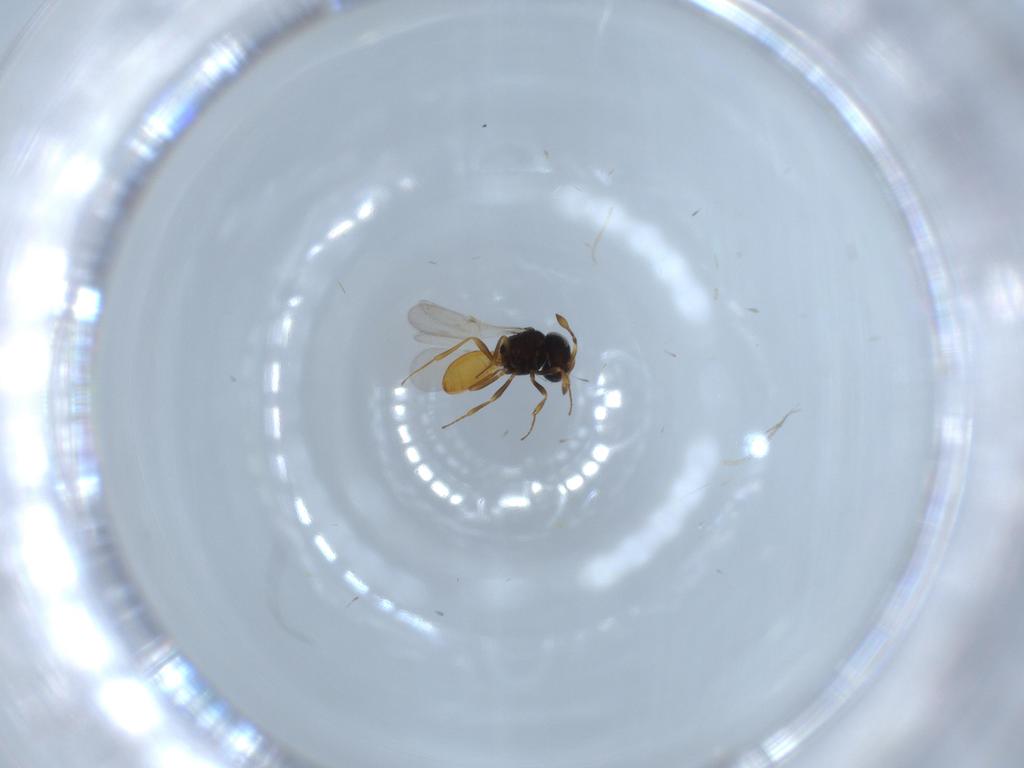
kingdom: Animalia
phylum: Arthropoda
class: Insecta
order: Hymenoptera
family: Scelionidae
